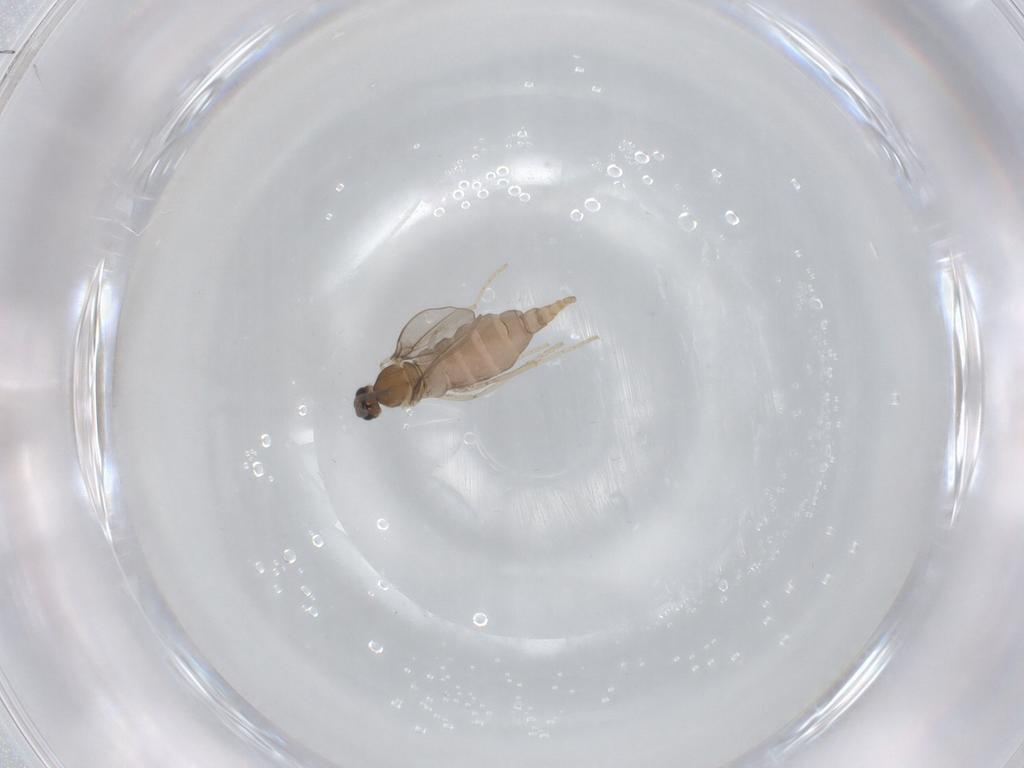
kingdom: Animalia
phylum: Arthropoda
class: Insecta
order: Diptera
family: Cecidomyiidae
